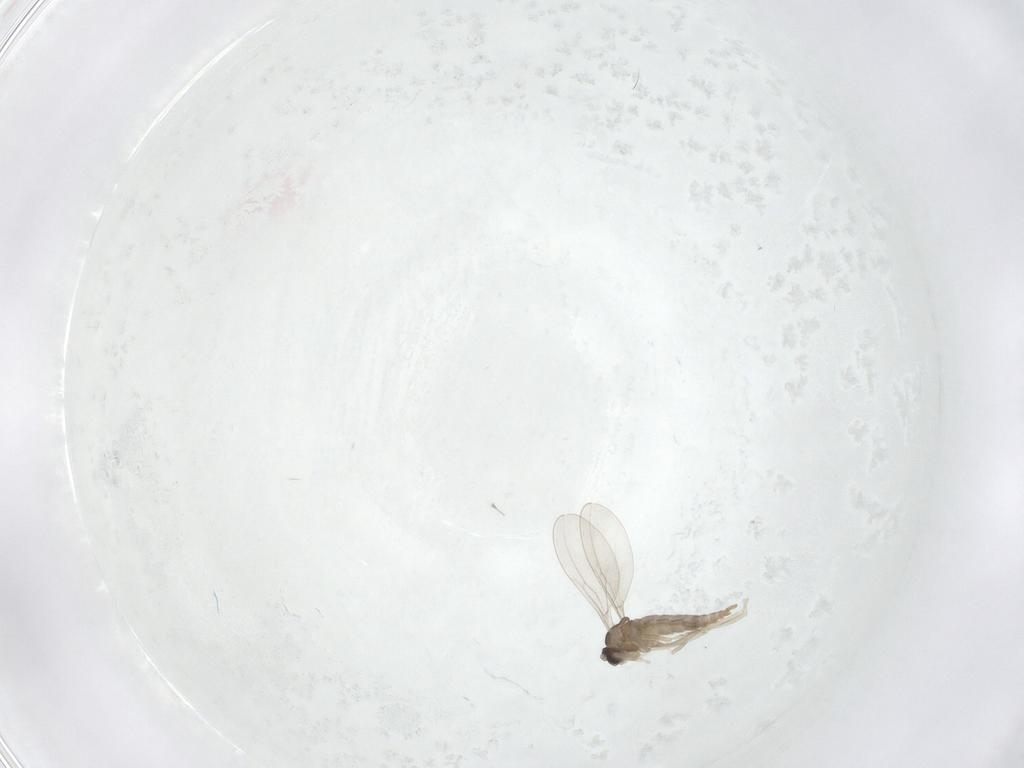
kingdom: Animalia
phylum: Arthropoda
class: Insecta
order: Diptera
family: Cecidomyiidae
